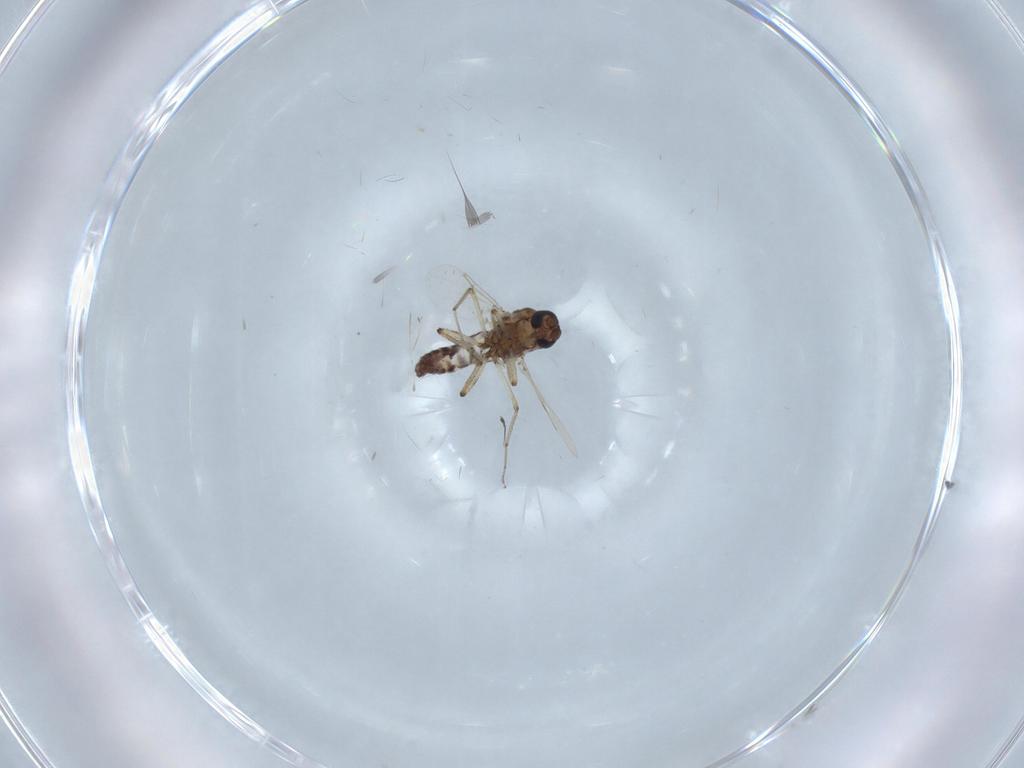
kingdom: Animalia
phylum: Arthropoda
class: Insecta
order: Diptera
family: Ceratopogonidae
